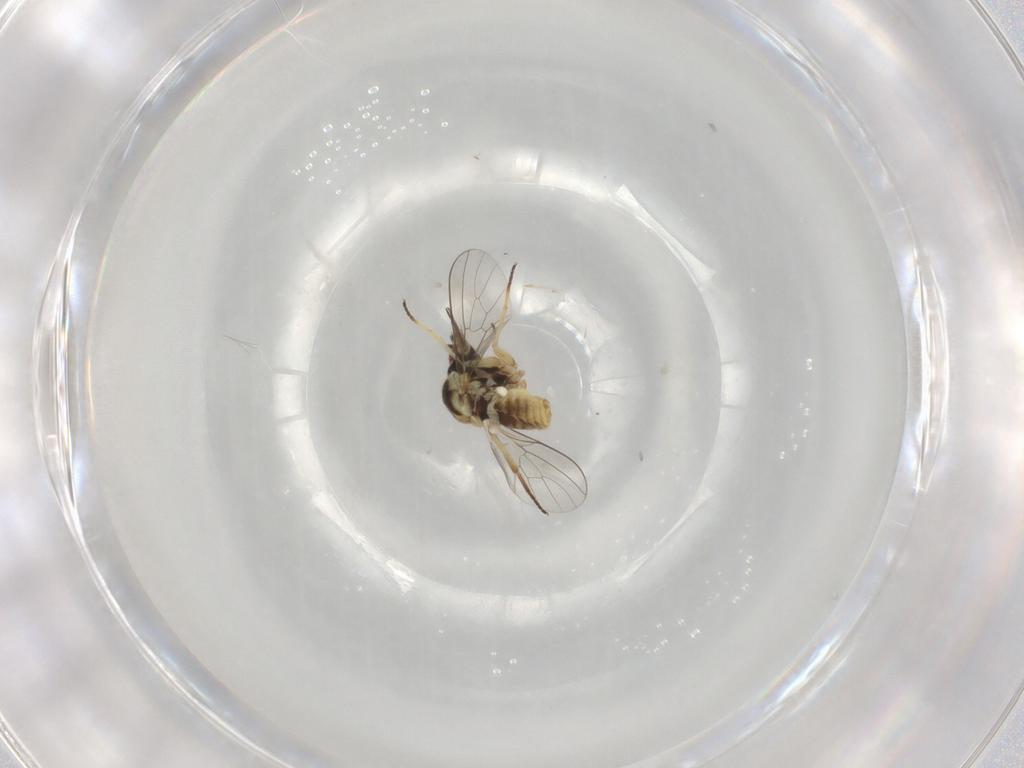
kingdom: Animalia
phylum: Arthropoda
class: Insecta
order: Diptera
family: Bombyliidae
